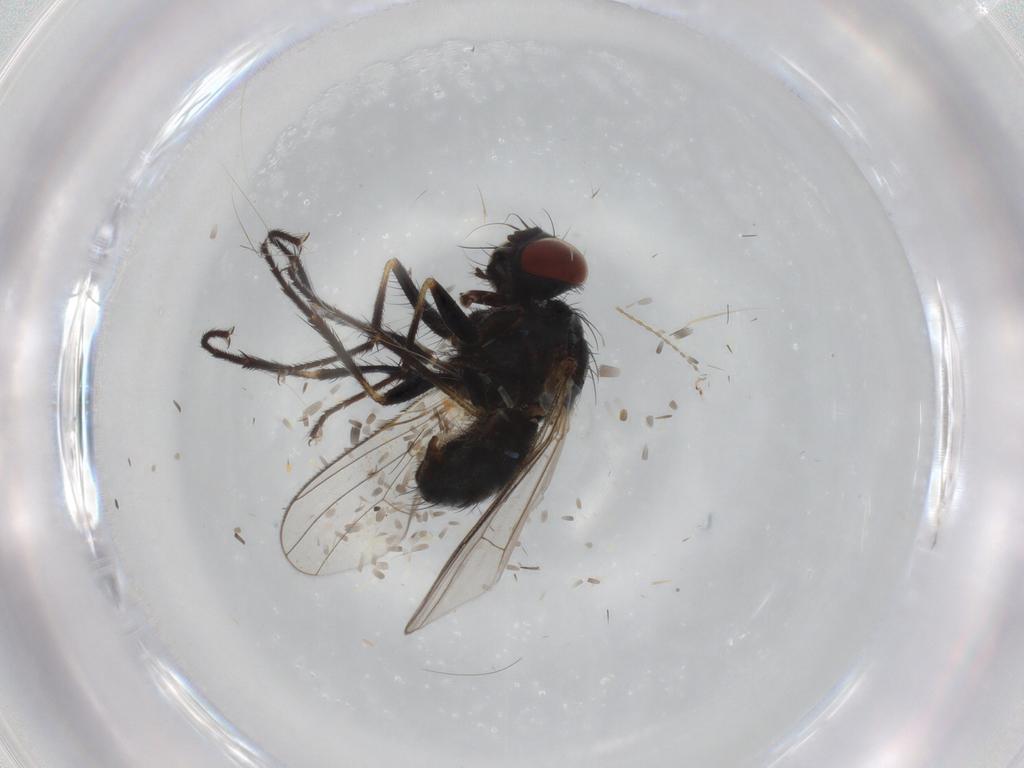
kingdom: Animalia
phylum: Arthropoda
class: Insecta
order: Diptera
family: Muscidae
